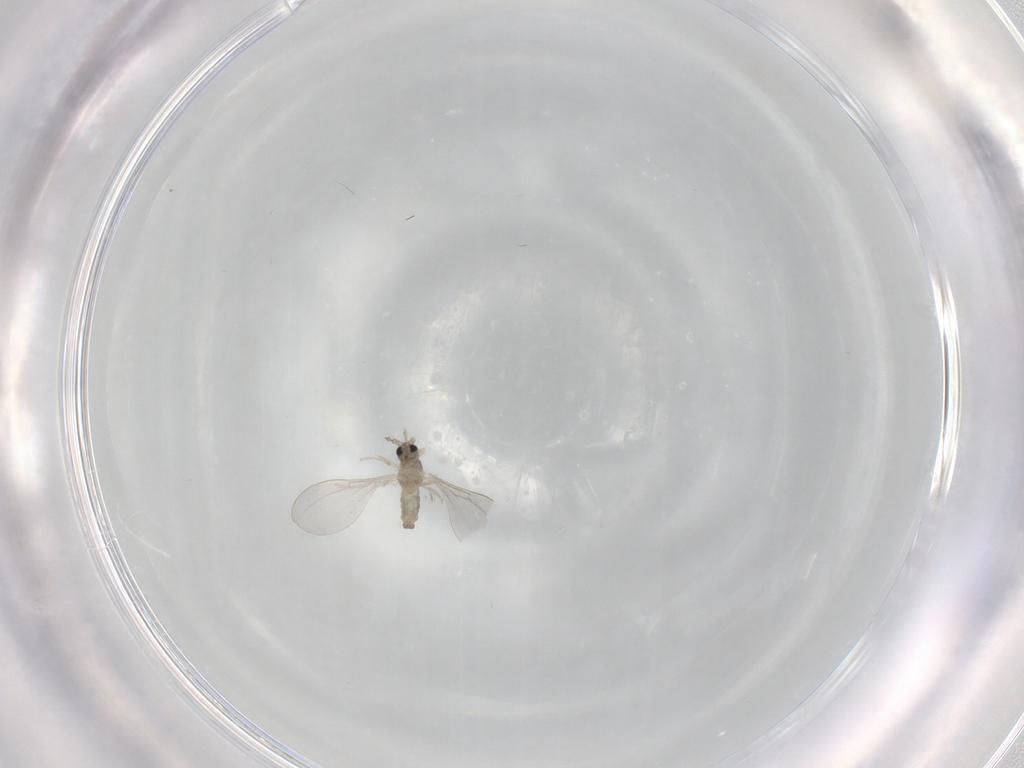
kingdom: Animalia
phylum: Arthropoda
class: Insecta
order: Diptera
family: Cecidomyiidae
